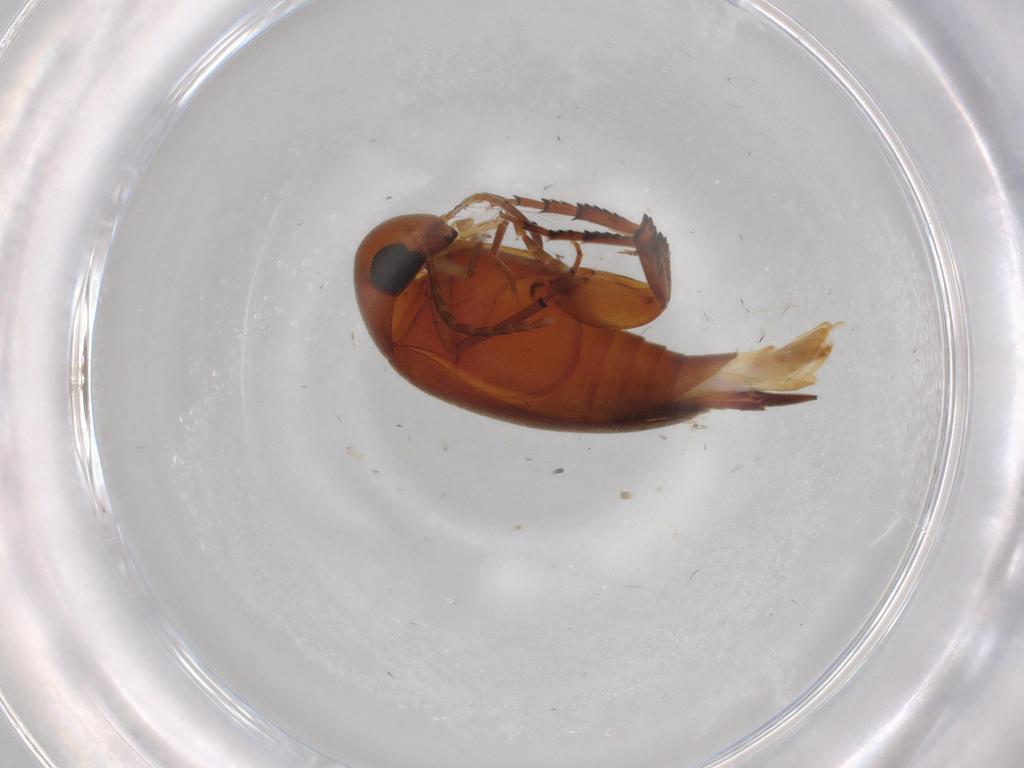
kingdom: Animalia
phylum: Arthropoda
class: Insecta
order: Coleoptera
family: Mordellidae
